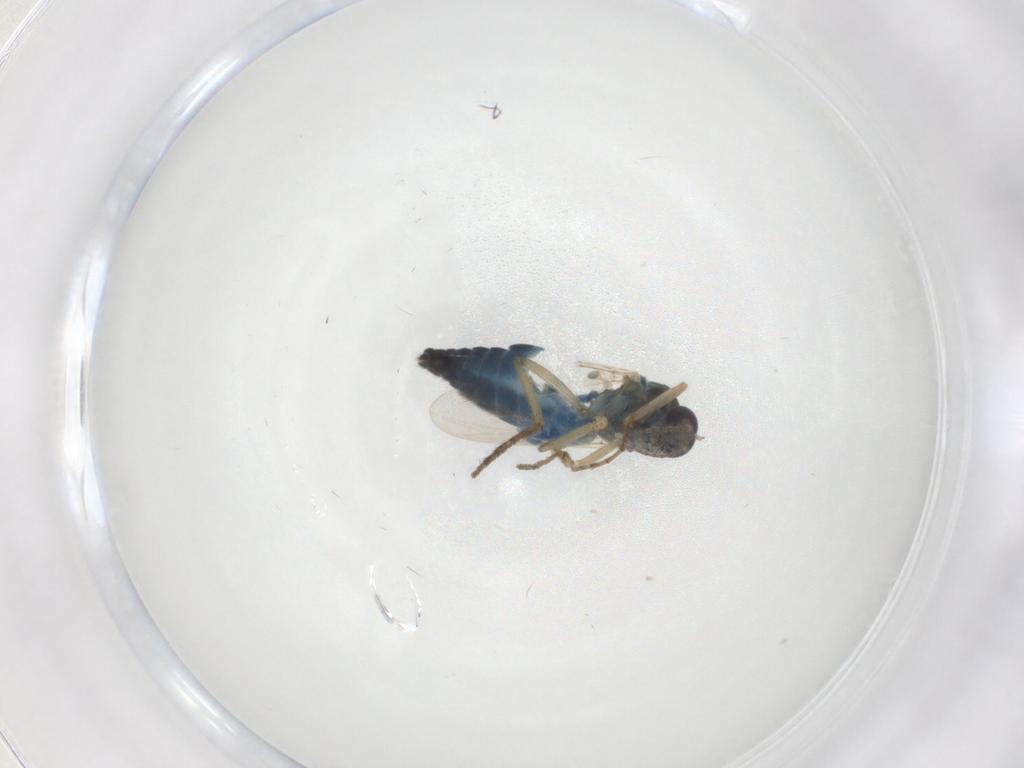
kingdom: Animalia
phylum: Arthropoda
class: Insecta
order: Diptera
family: Ceratopogonidae
